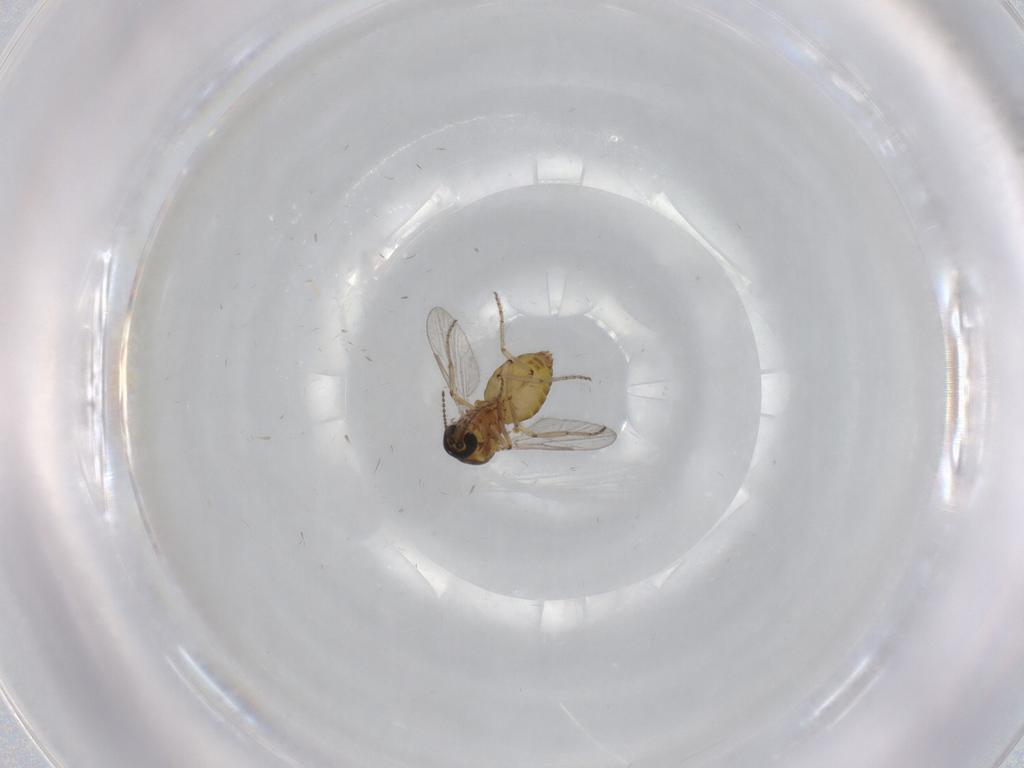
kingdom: Animalia
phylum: Arthropoda
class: Insecta
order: Diptera
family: Ceratopogonidae
